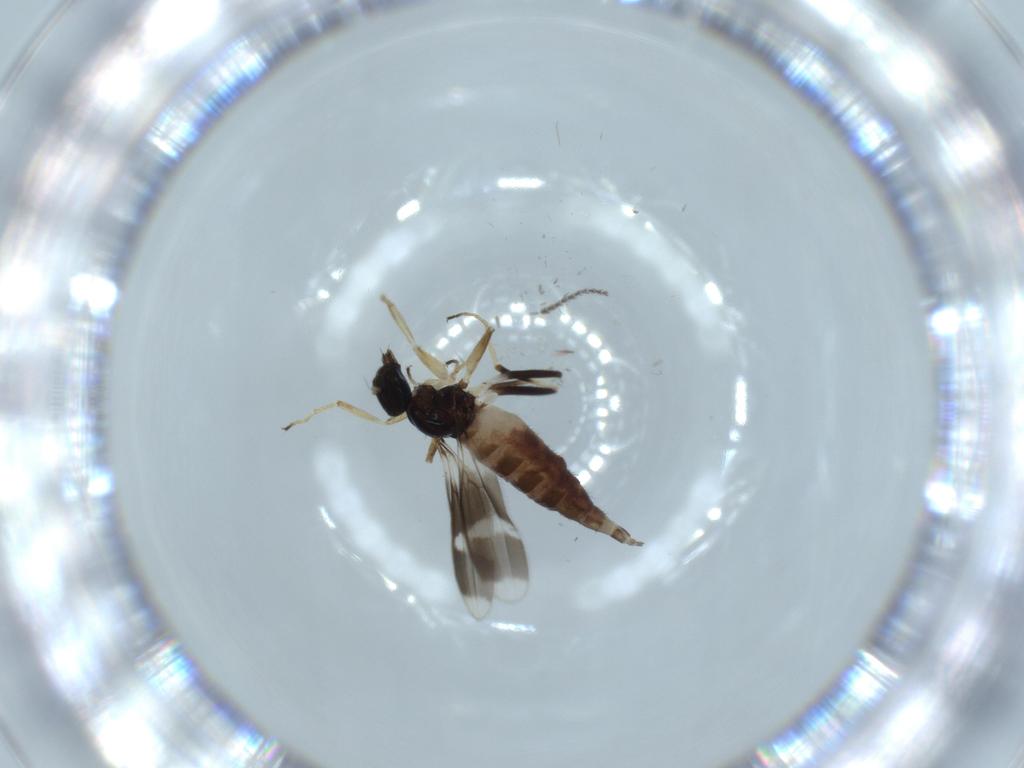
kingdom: Animalia
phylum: Arthropoda
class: Insecta
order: Diptera
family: Hybotidae
